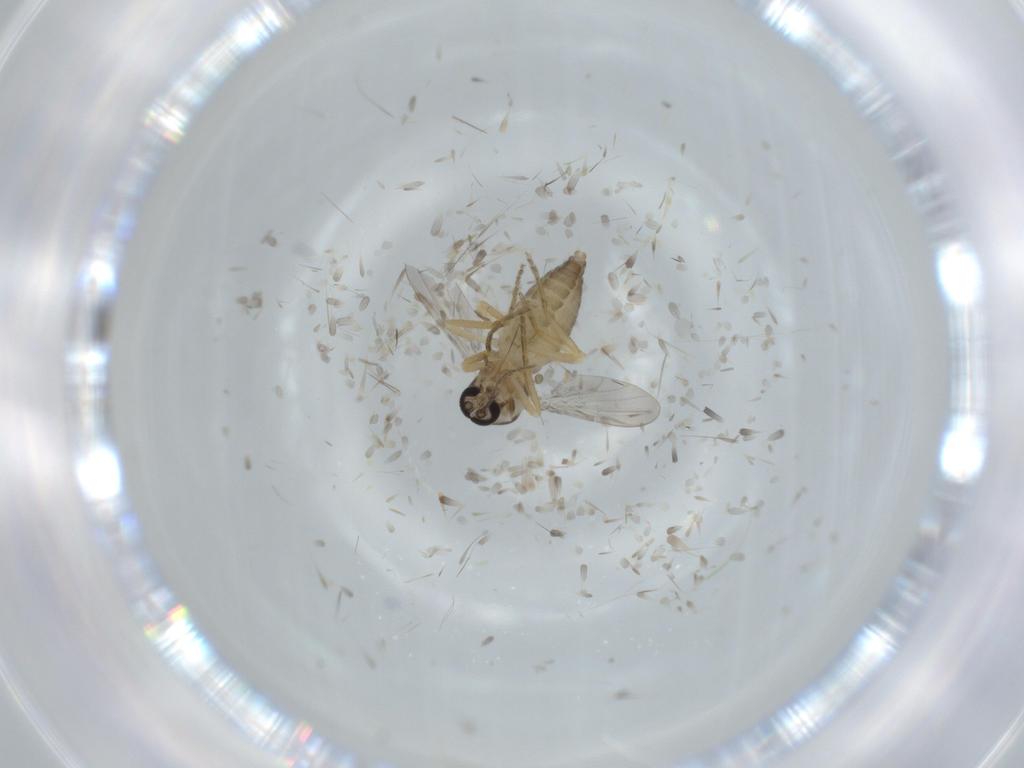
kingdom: Animalia
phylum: Arthropoda
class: Insecta
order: Diptera
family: Ceratopogonidae
